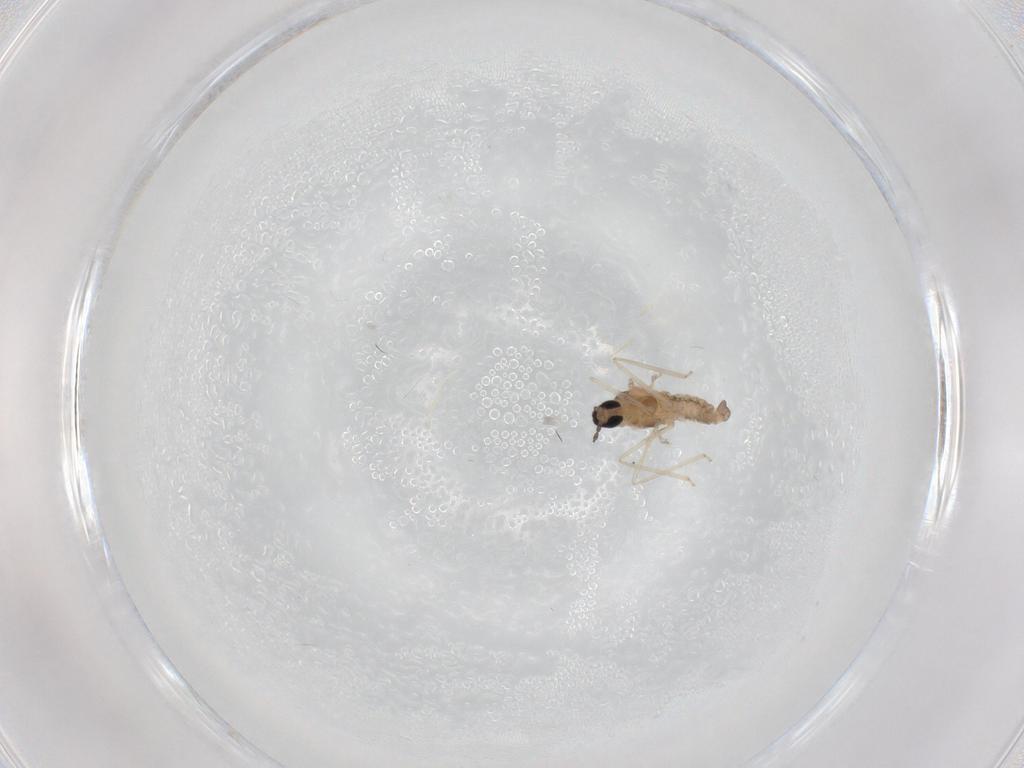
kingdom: Animalia
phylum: Arthropoda
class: Insecta
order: Diptera
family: Cecidomyiidae
